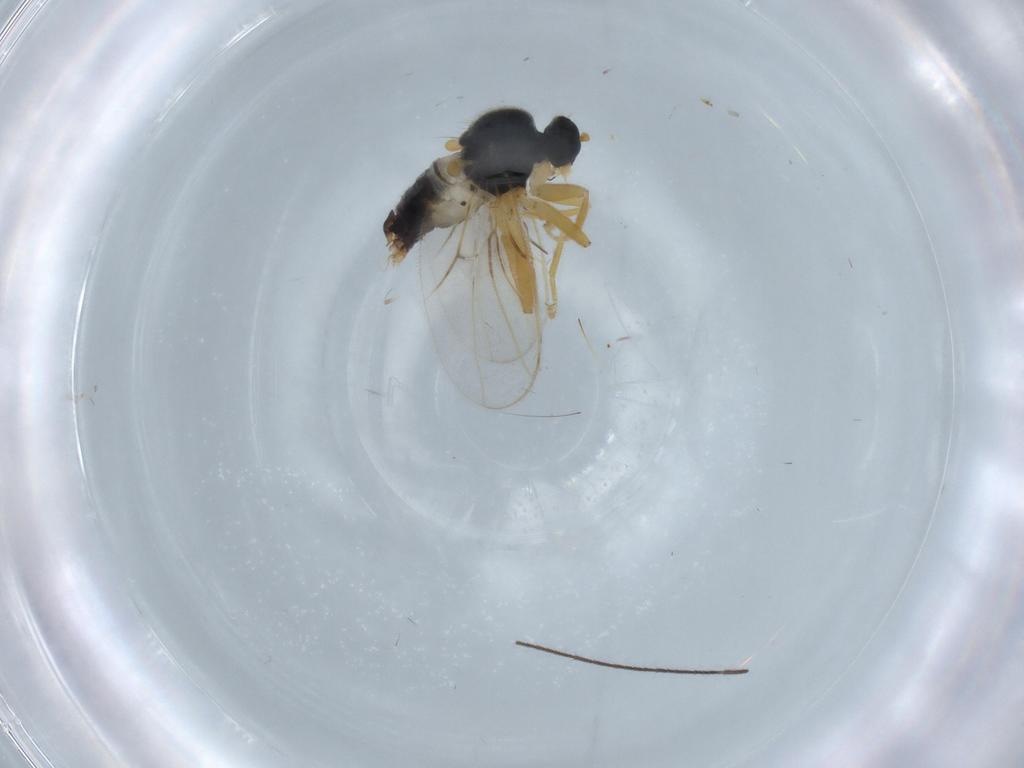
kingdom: Animalia
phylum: Arthropoda
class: Insecta
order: Diptera
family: Hybotidae
